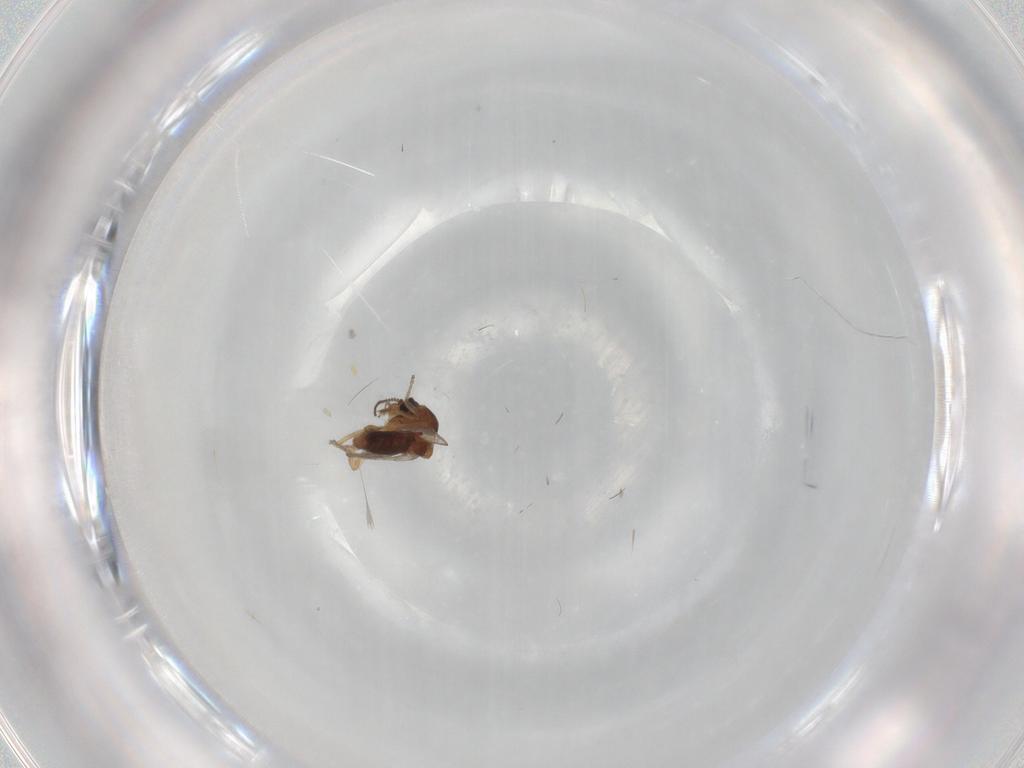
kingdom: Animalia
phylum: Arthropoda
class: Insecta
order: Diptera
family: Ceratopogonidae
